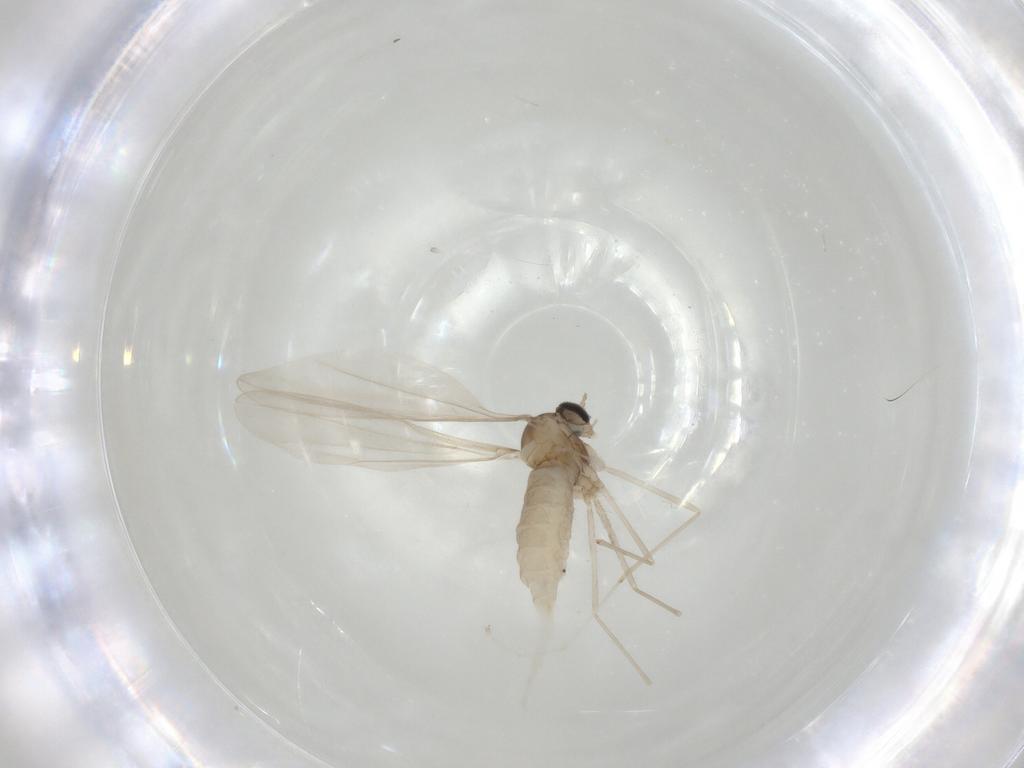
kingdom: Animalia
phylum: Arthropoda
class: Insecta
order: Diptera
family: Cecidomyiidae
